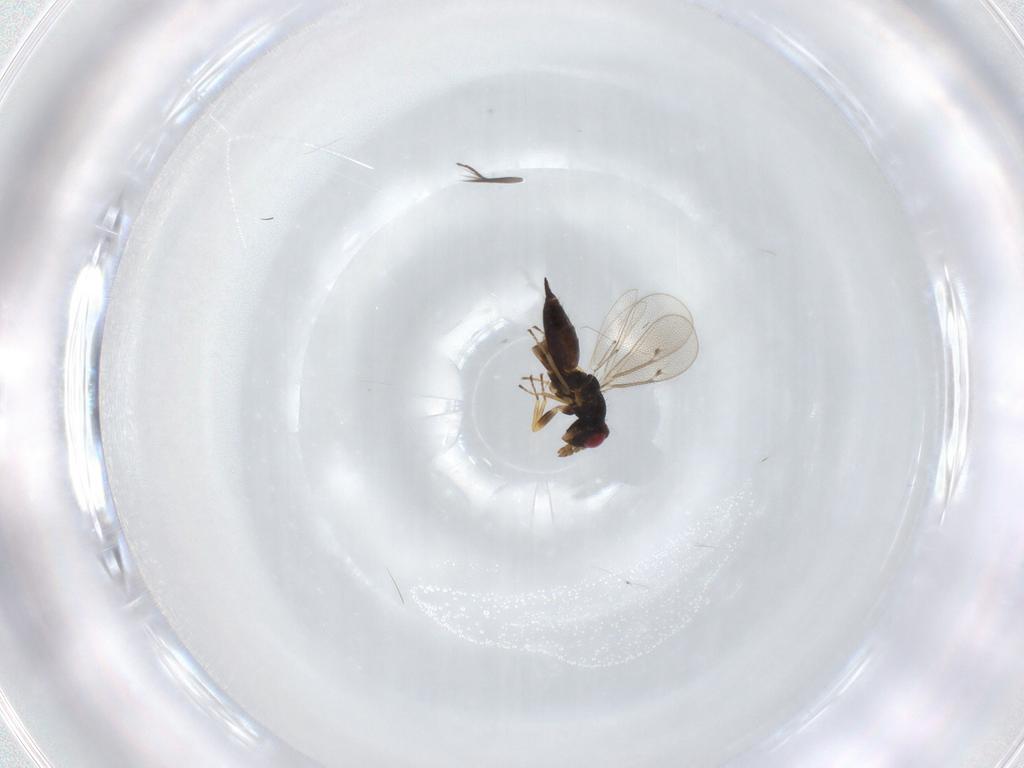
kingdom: Animalia
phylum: Arthropoda
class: Insecta
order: Hymenoptera
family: Eulophidae
